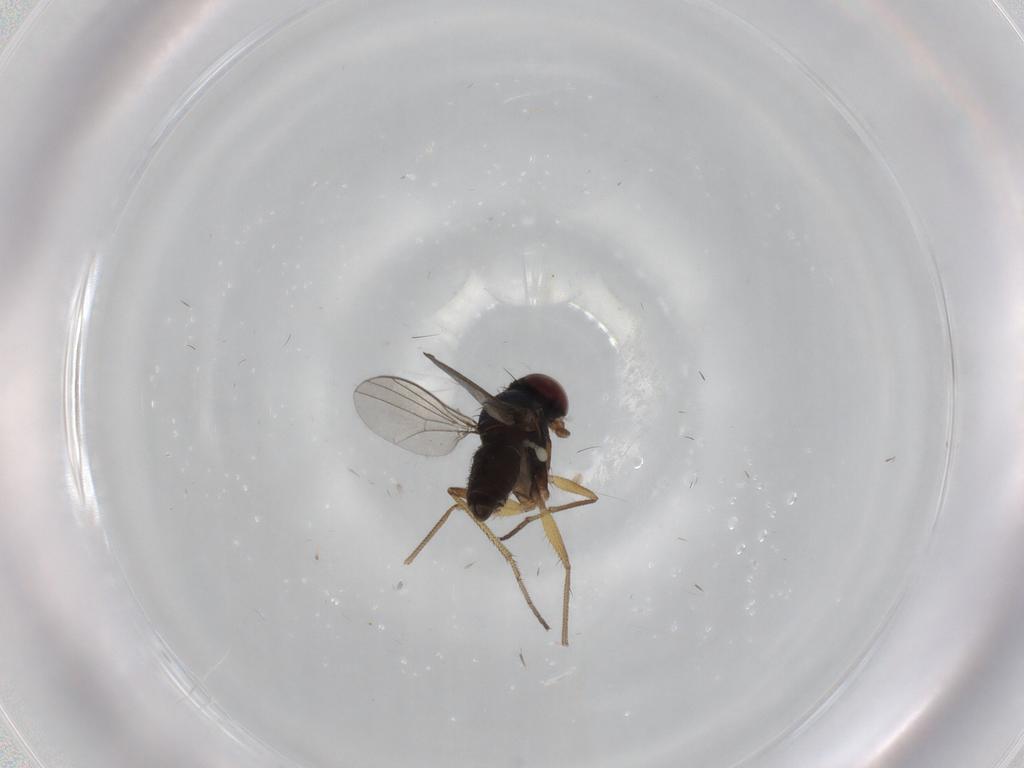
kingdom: Animalia
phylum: Arthropoda
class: Insecta
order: Diptera
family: Dolichopodidae
